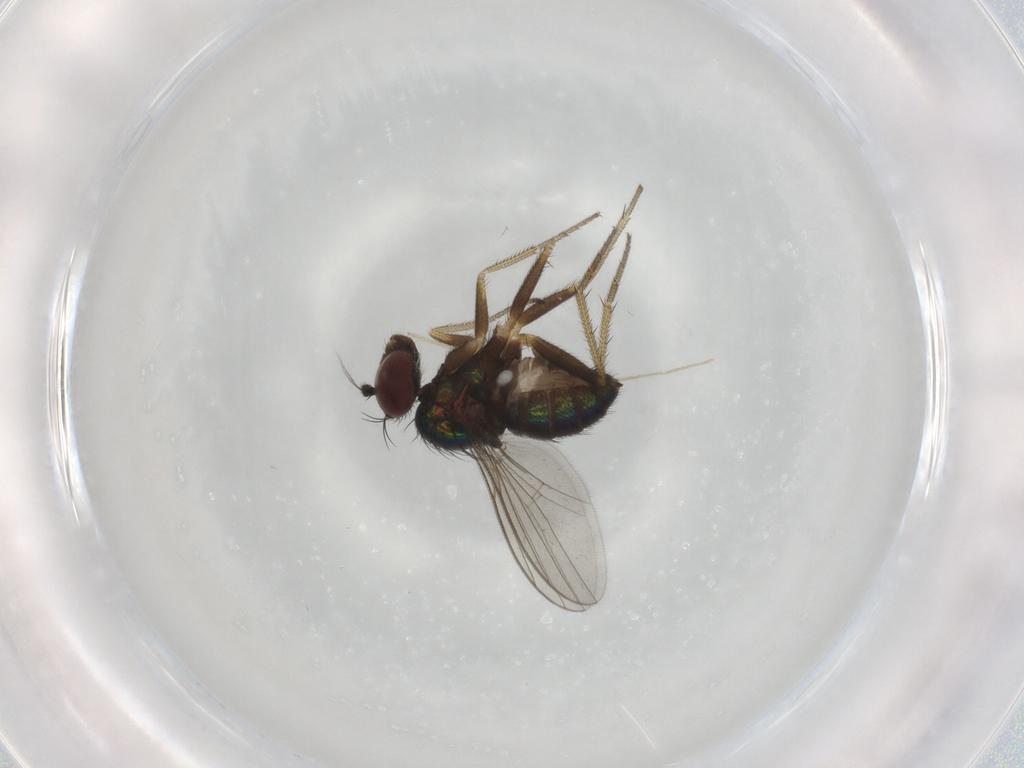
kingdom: Animalia
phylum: Arthropoda
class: Insecta
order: Diptera
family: Chironomidae
